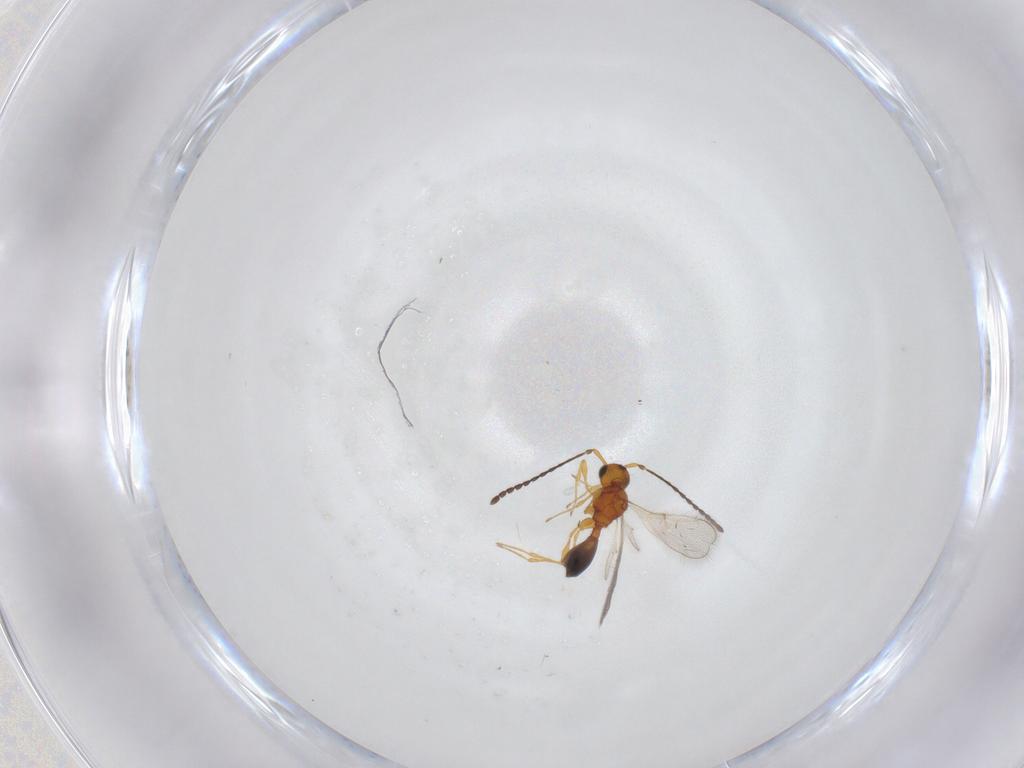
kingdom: Animalia
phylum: Arthropoda
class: Insecta
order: Hymenoptera
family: Diapriidae
